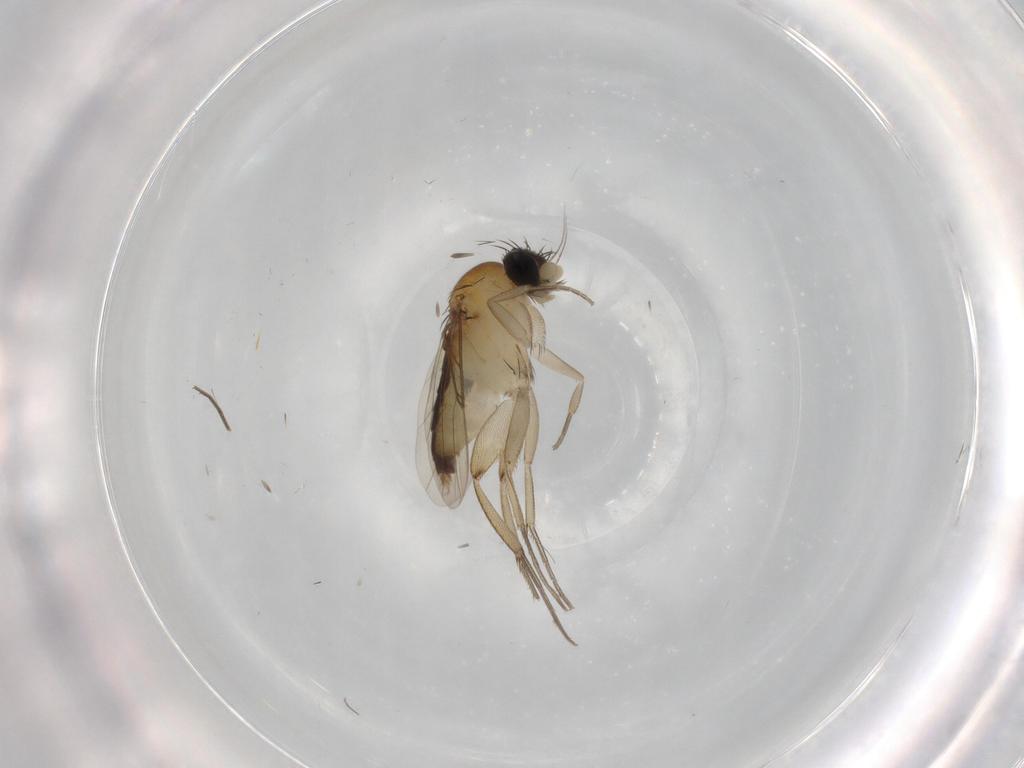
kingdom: Animalia
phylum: Arthropoda
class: Insecta
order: Diptera
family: Phoridae
